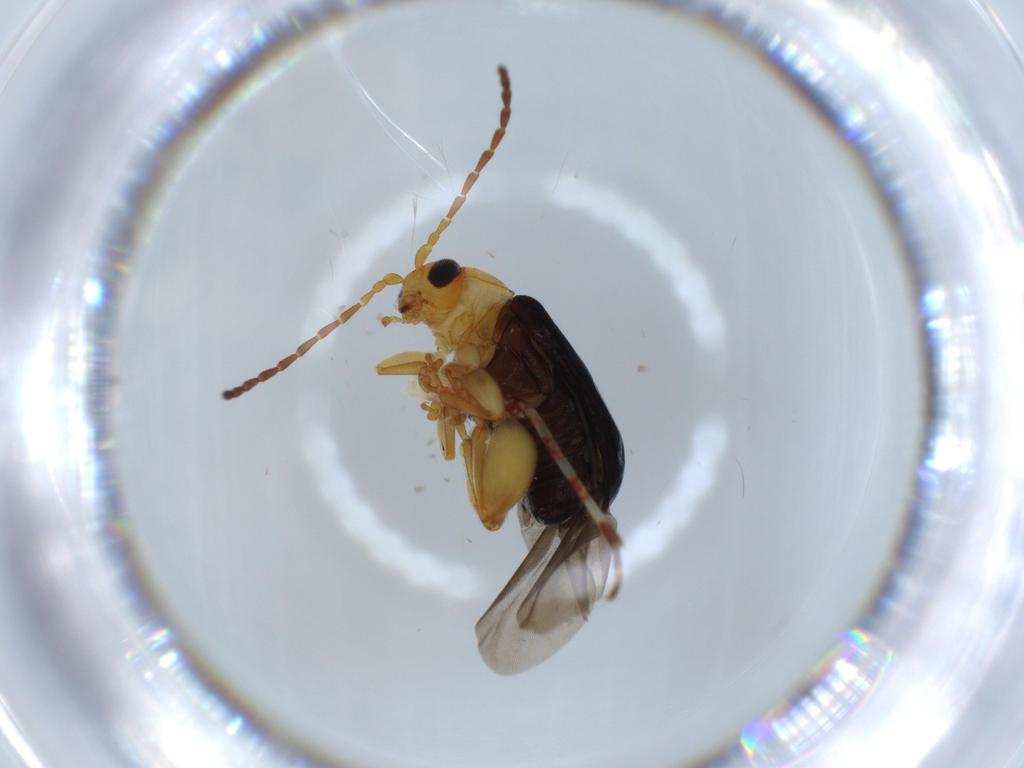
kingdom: Animalia
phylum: Arthropoda
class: Insecta
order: Coleoptera
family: Chrysomelidae
